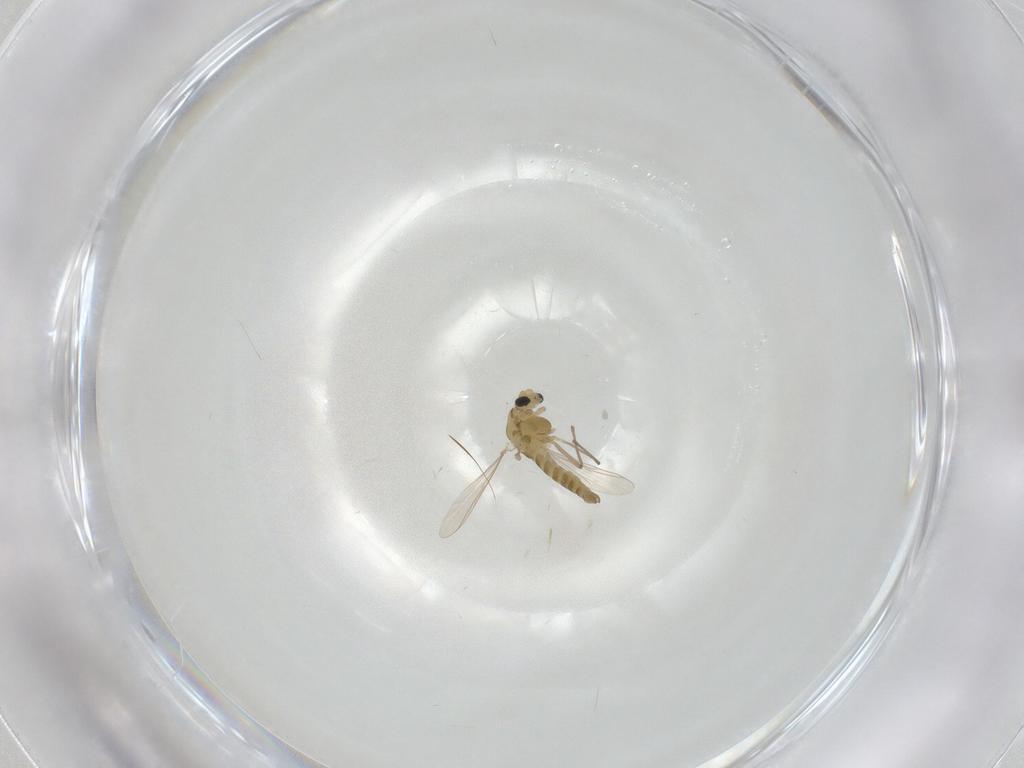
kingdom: Animalia
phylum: Arthropoda
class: Insecta
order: Diptera
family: Chironomidae
